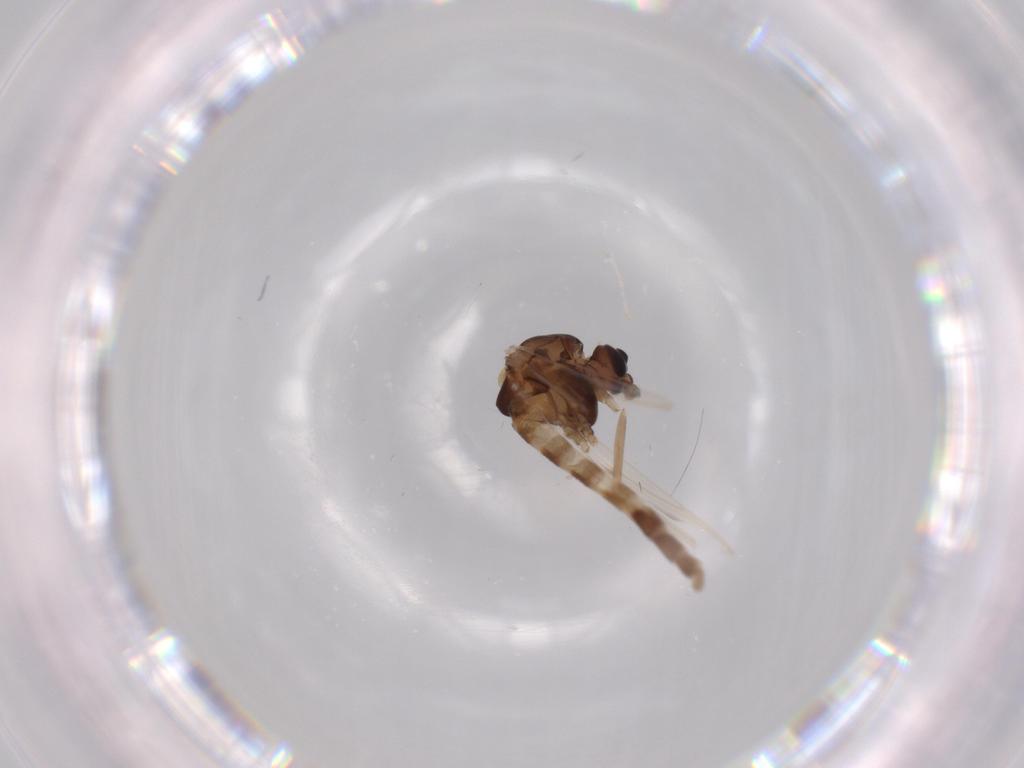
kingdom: Animalia
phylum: Arthropoda
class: Insecta
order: Diptera
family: Chironomidae
